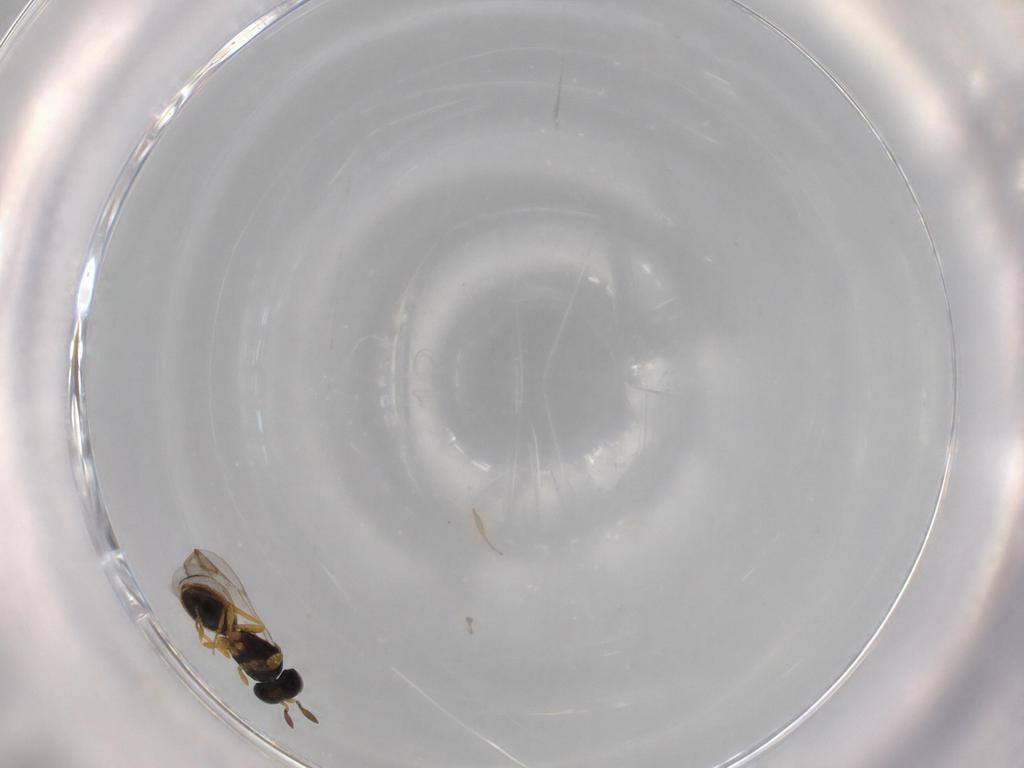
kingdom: Animalia
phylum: Arthropoda
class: Insecta
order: Hymenoptera
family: Scelionidae
